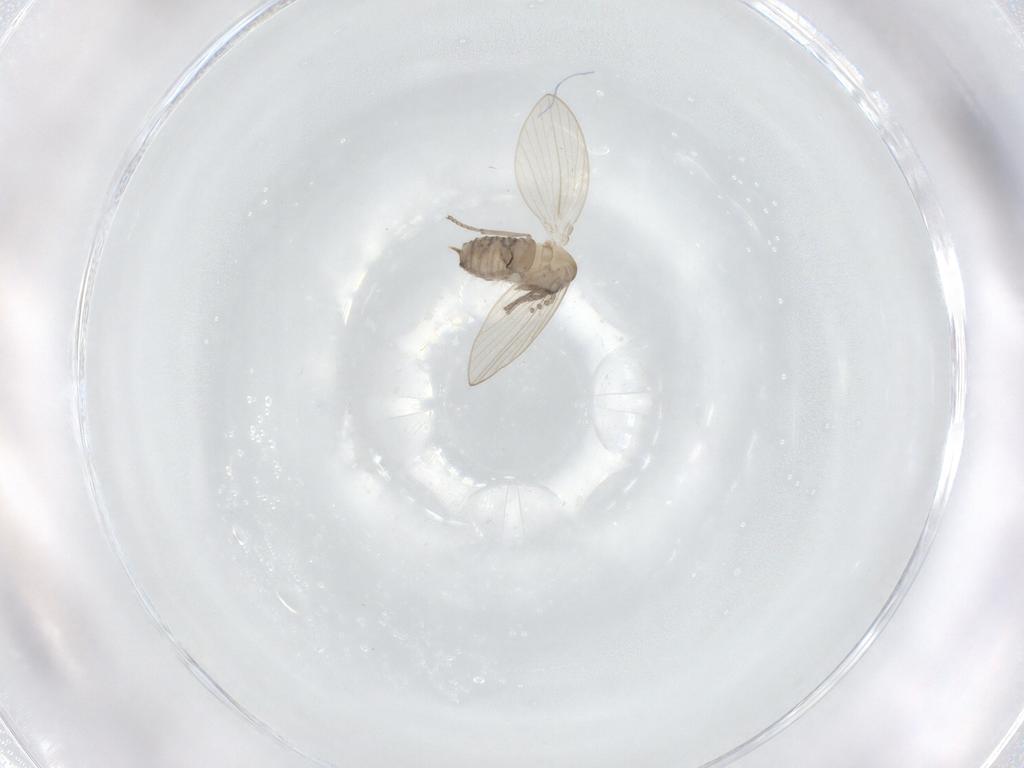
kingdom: Animalia
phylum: Arthropoda
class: Insecta
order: Diptera
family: Psychodidae
